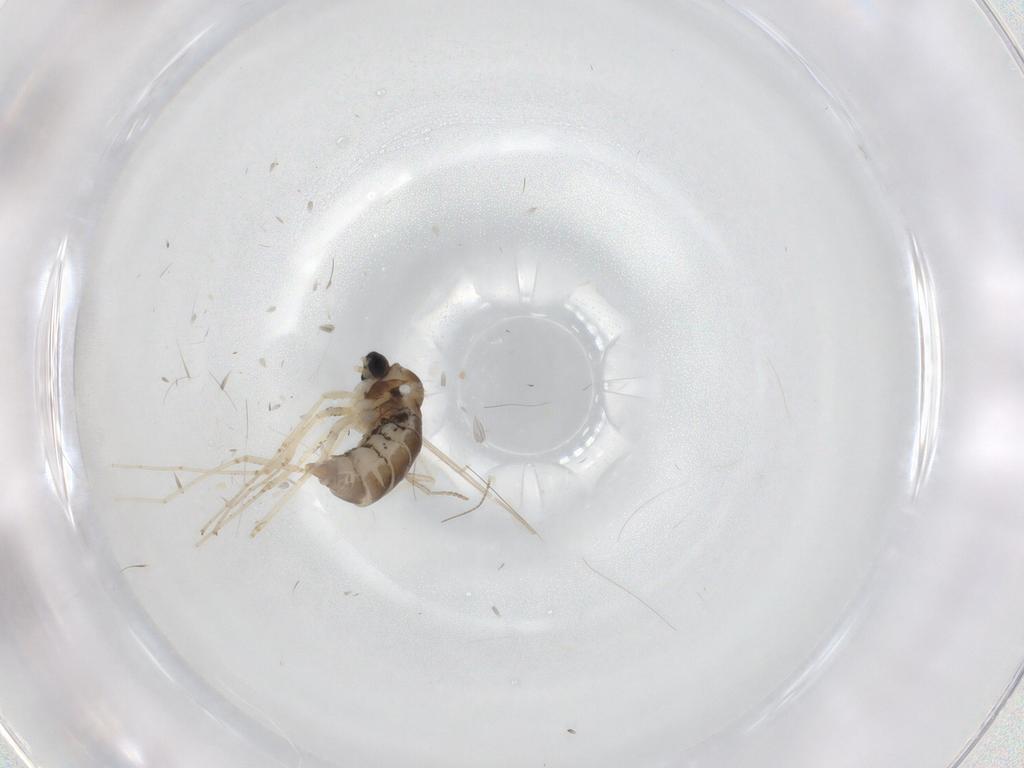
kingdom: Animalia
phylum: Arthropoda
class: Insecta
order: Diptera
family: Cecidomyiidae
